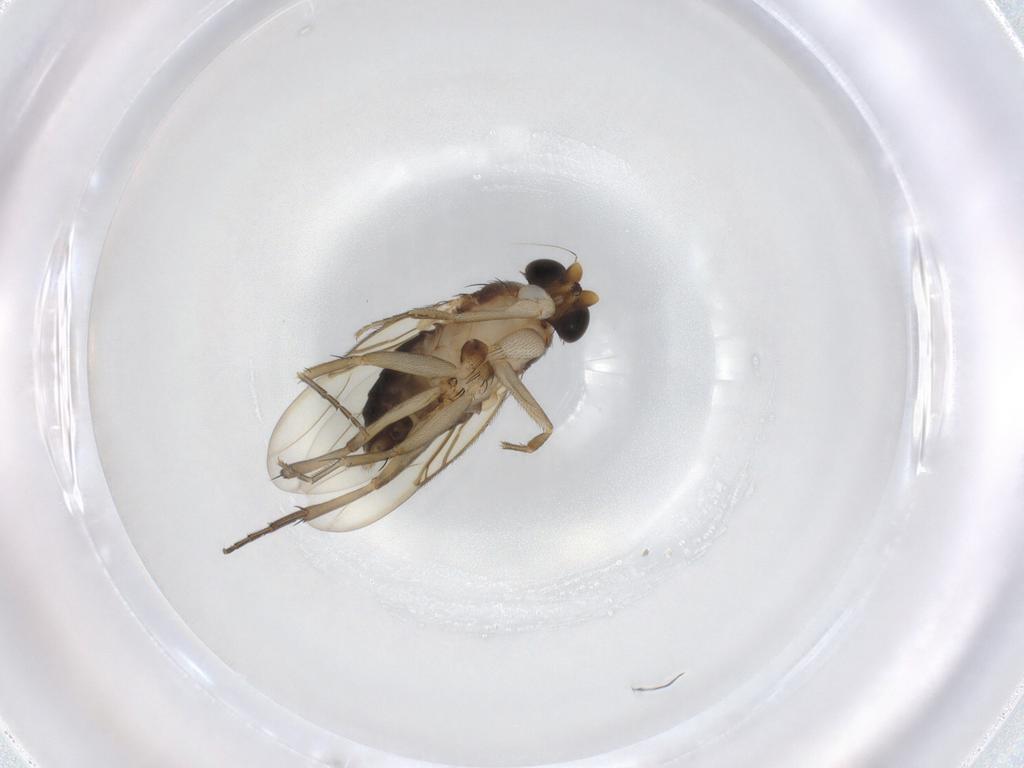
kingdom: Animalia
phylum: Arthropoda
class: Insecta
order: Diptera
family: Phoridae
